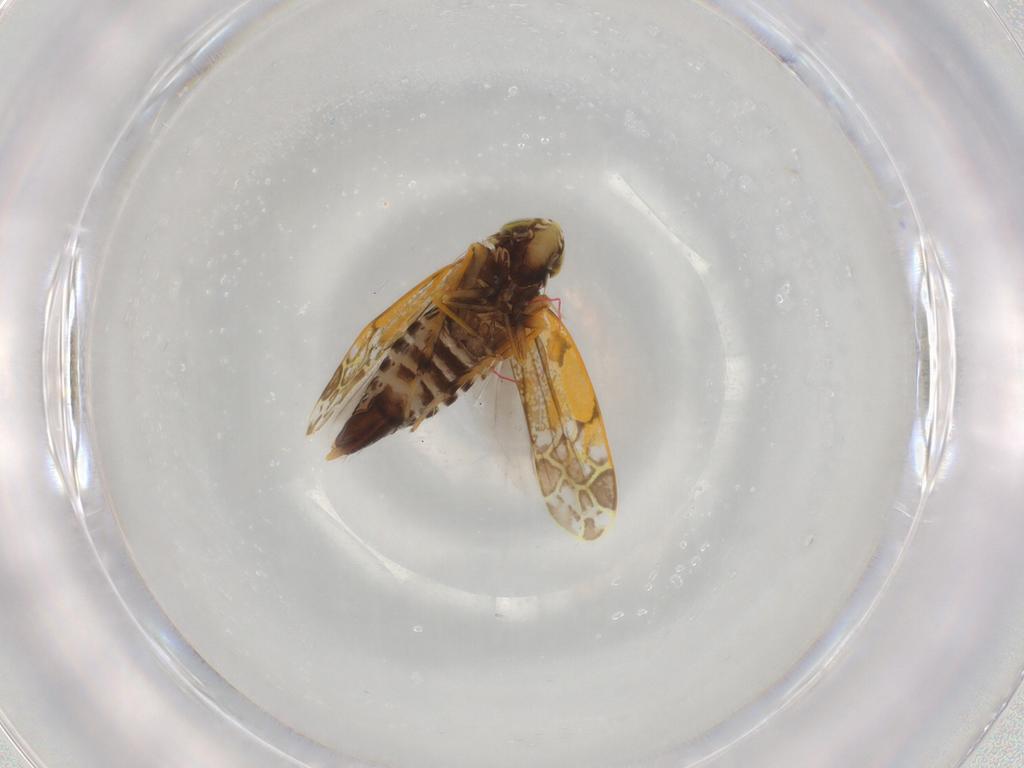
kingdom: Animalia
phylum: Arthropoda
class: Insecta
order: Hemiptera
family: Cicadellidae
